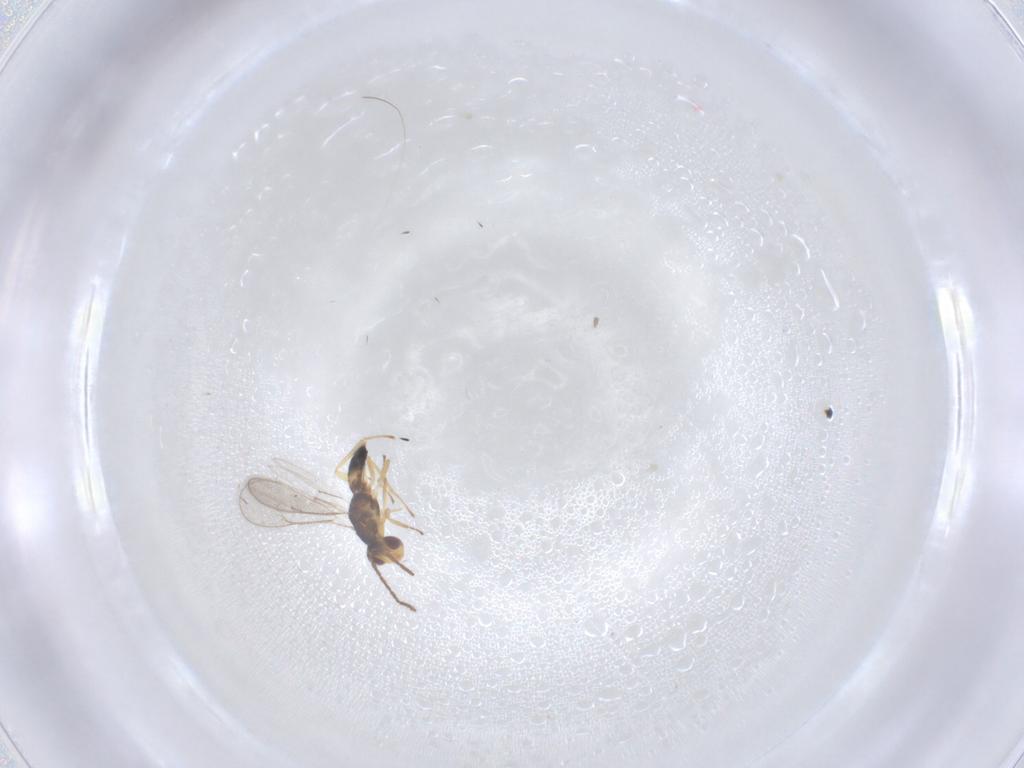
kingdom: Animalia
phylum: Arthropoda
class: Insecta
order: Hymenoptera
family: Eulophidae
